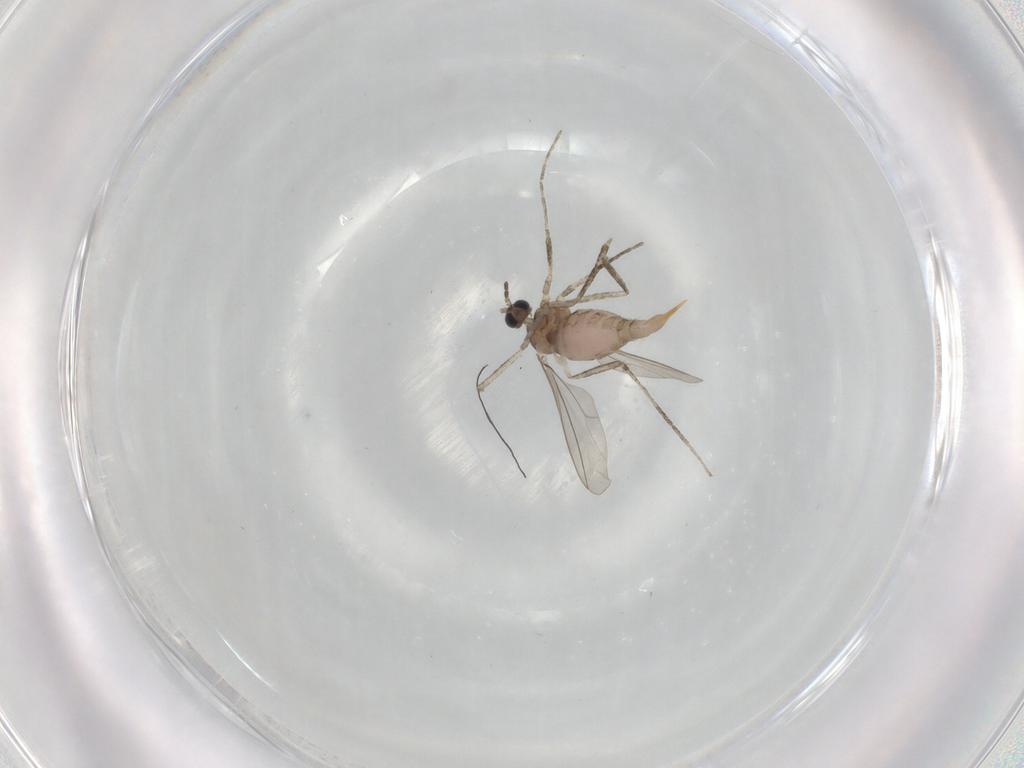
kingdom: Animalia
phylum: Arthropoda
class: Insecta
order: Diptera
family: Cecidomyiidae
